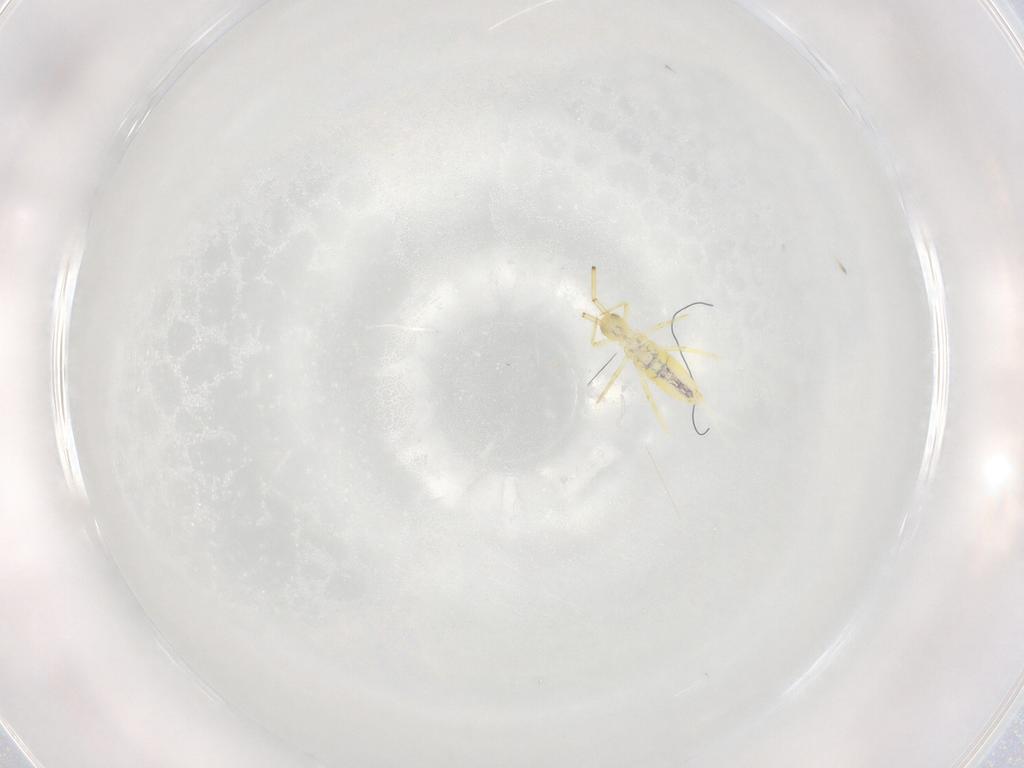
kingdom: Animalia
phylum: Arthropoda
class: Collembola
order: Entomobryomorpha
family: Entomobryidae
